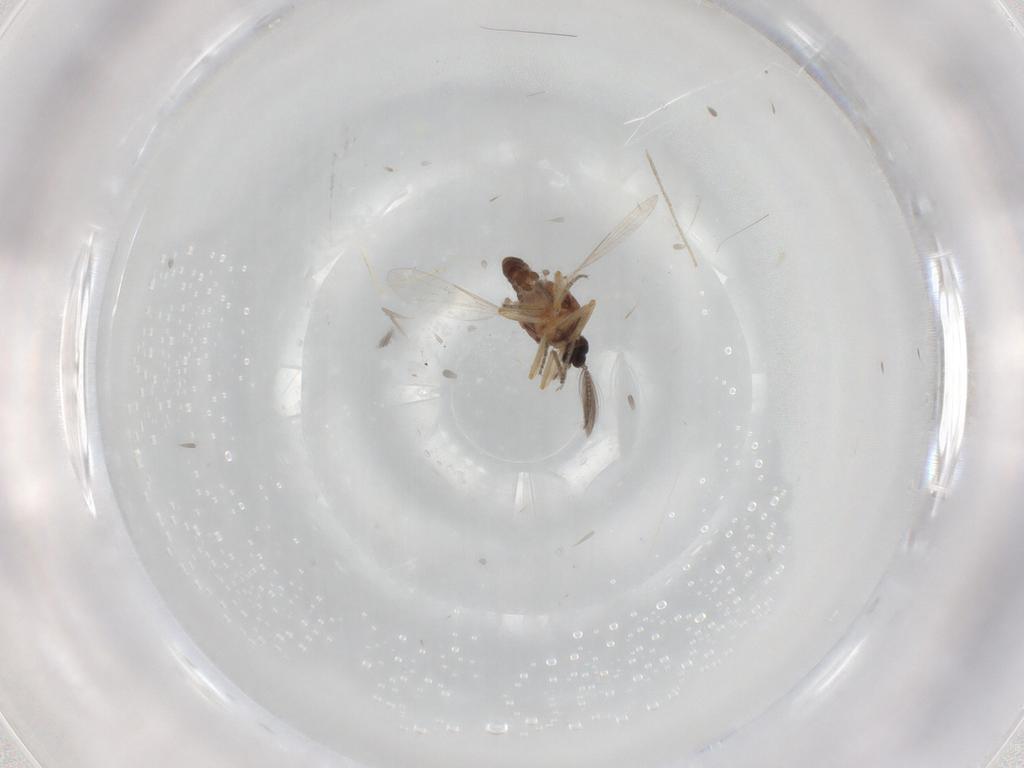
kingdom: Animalia
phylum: Arthropoda
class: Insecta
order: Diptera
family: Ceratopogonidae
